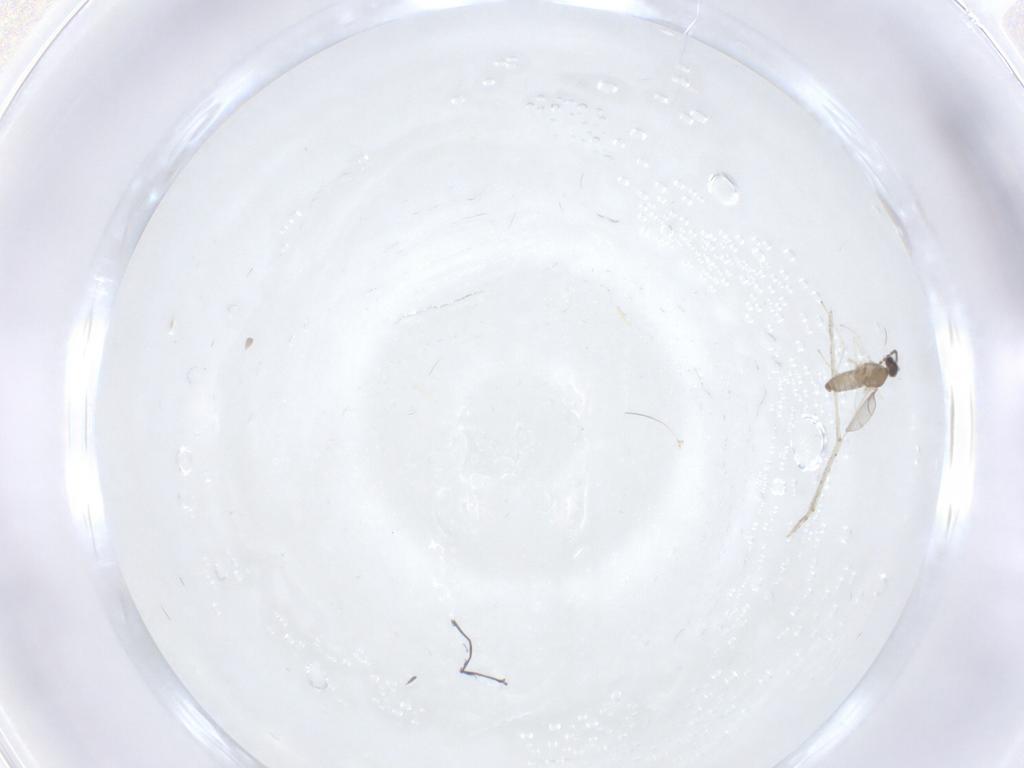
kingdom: Animalia
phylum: Arthropoda
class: Insecta
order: Diptera
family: Cecidomyiidae
